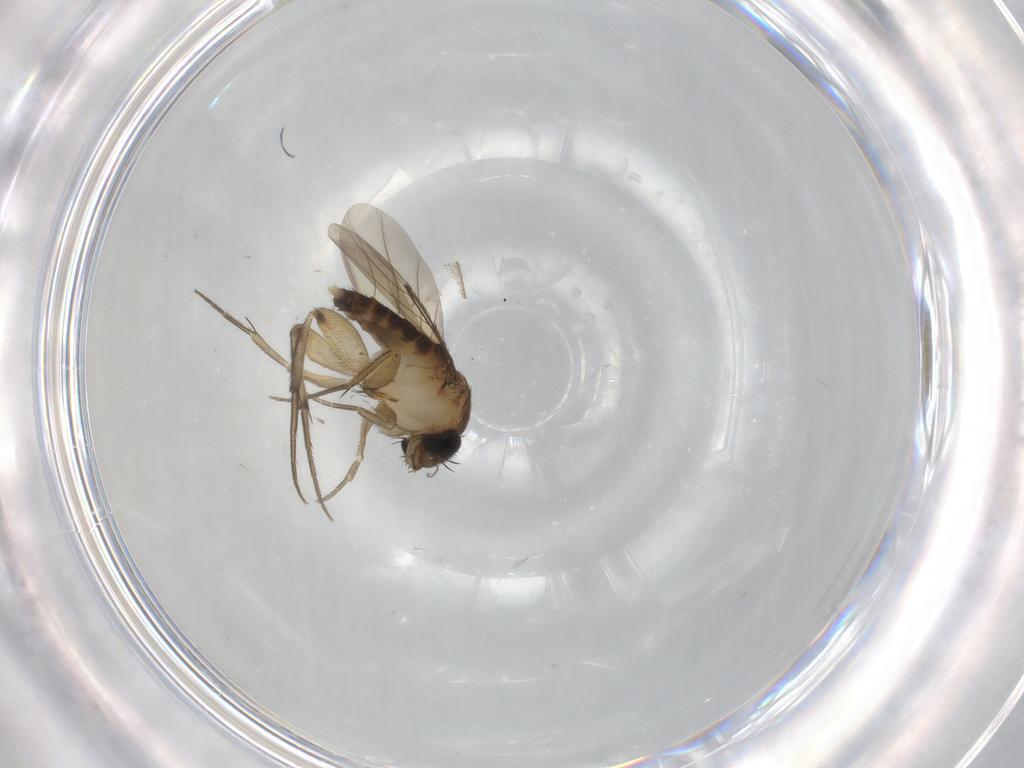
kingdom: Animalia
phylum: Arthropoda
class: Insecta
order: Diptera
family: Phoridae
